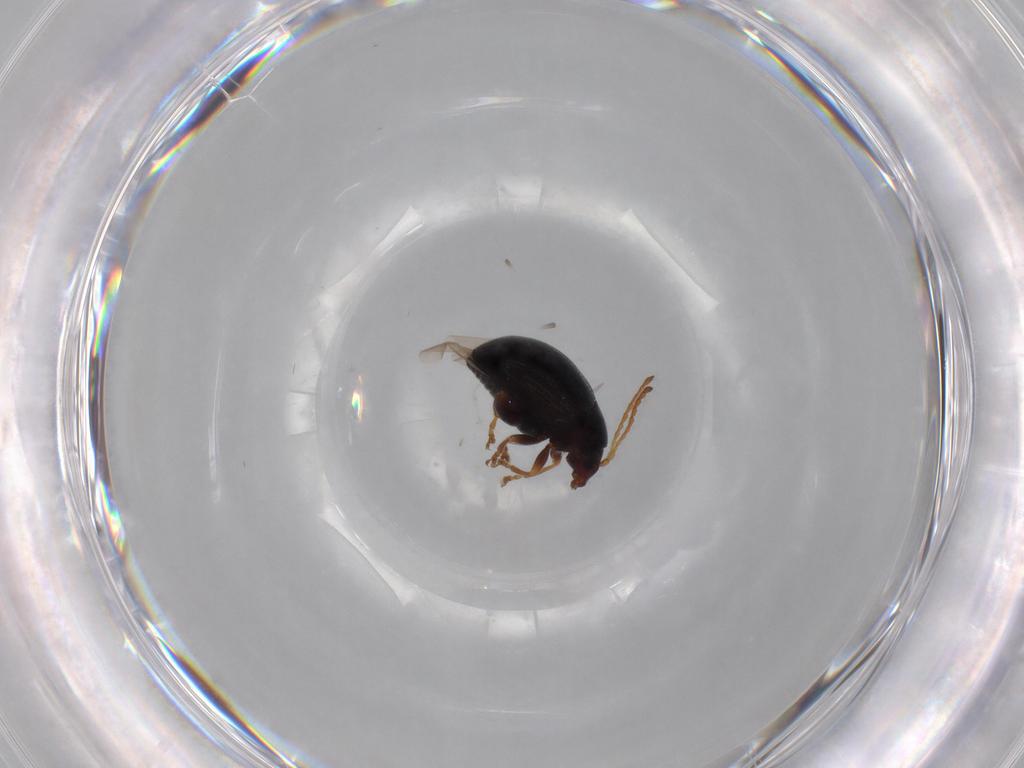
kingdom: Animalia
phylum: Arthropoda
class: Insecta
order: Coleoptera
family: Chrysomelidae
